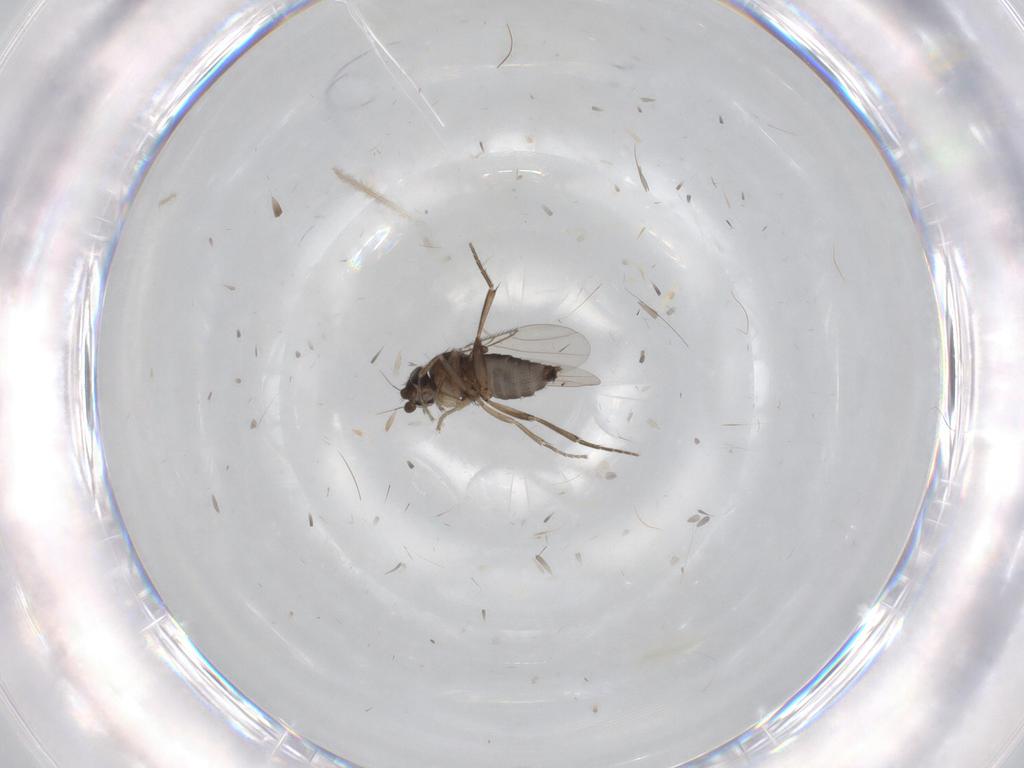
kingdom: Animalia
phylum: Arthropoda
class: Insecta
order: Diptera
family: Phoridae
